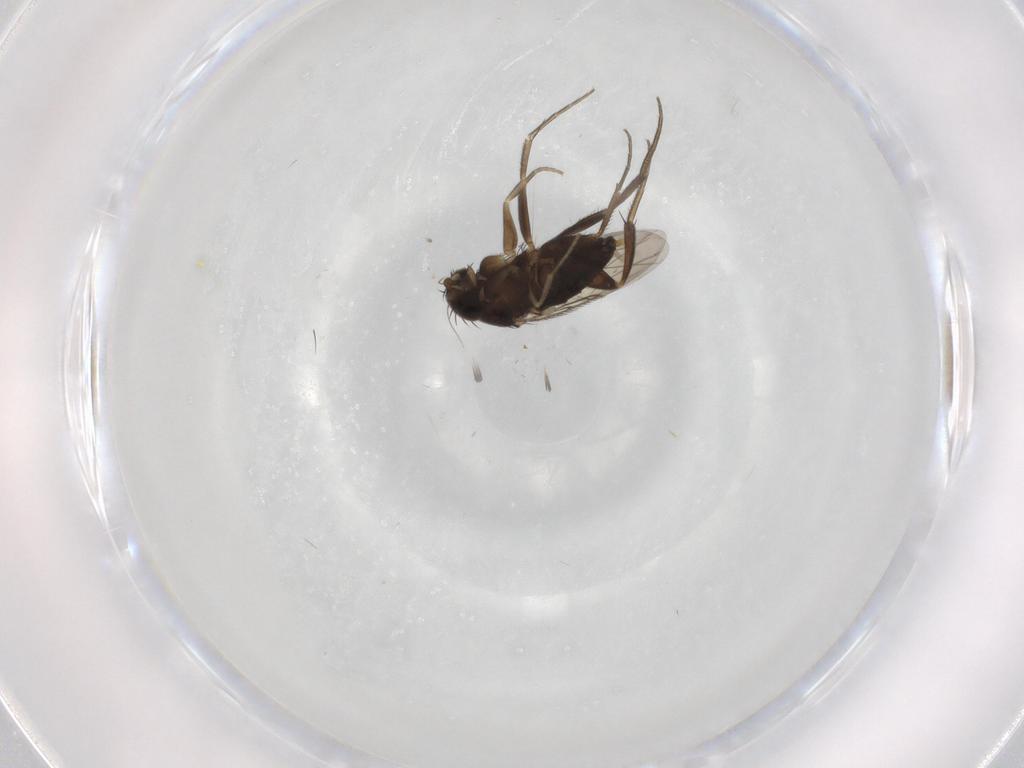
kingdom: Animalia
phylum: Arthropoda
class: Insecta
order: Diptera
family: Phoridae
